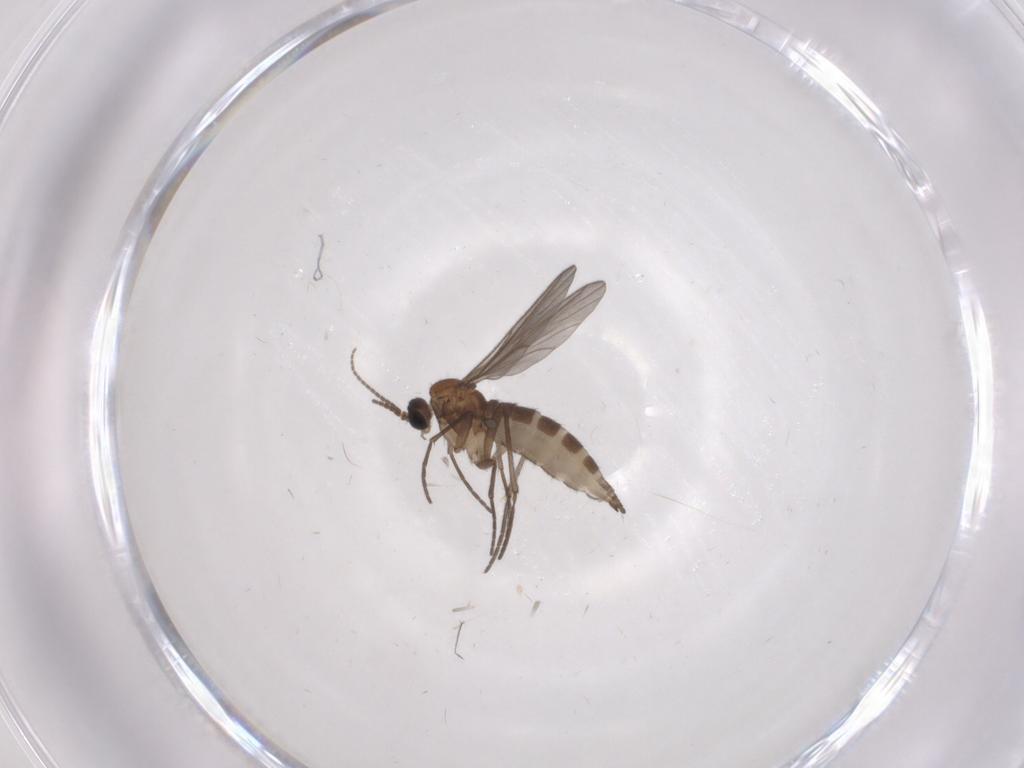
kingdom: Animalia
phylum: Arthropoda
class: Insecta
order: Diptera
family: Sciaridae
